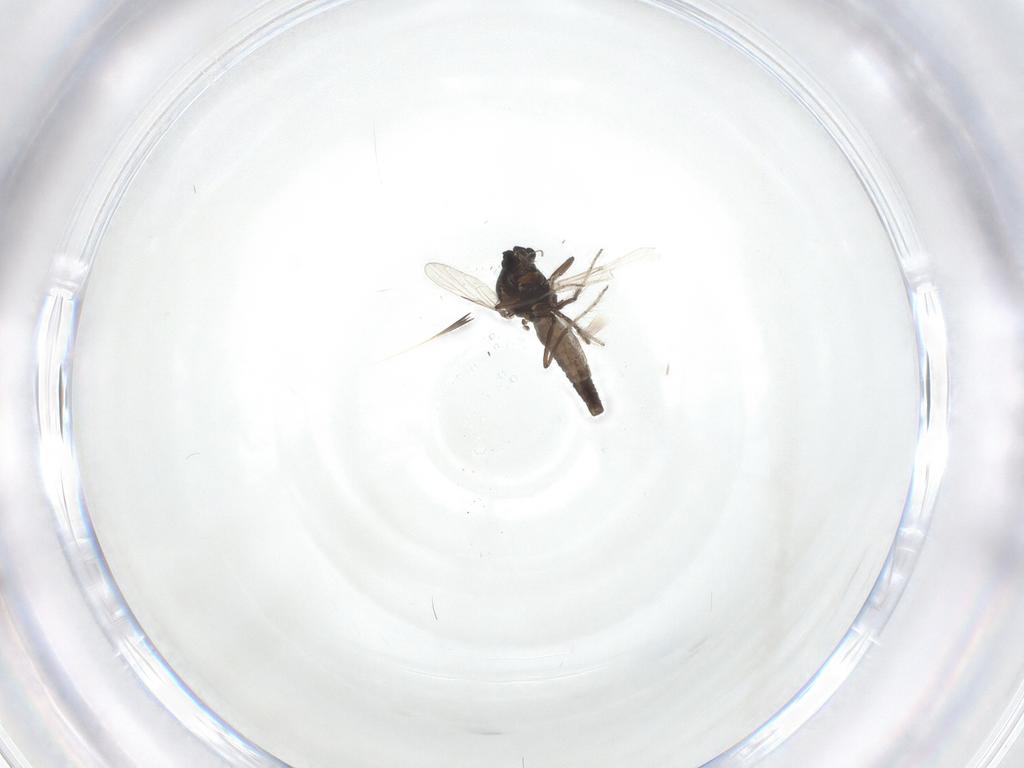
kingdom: Animalia
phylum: Arthropoda
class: Insecta
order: Diptera
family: Ceratopogonidae
